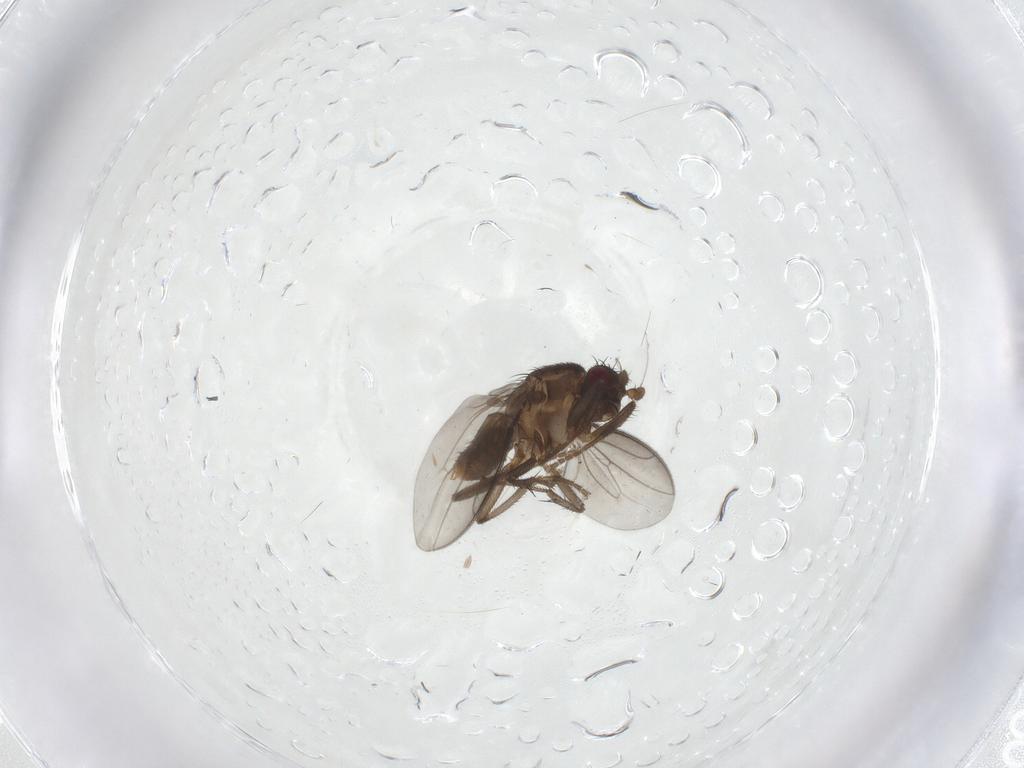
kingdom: Animalia
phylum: Arthropoda
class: Insecta
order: Diptera
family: Sphaeroceridae
